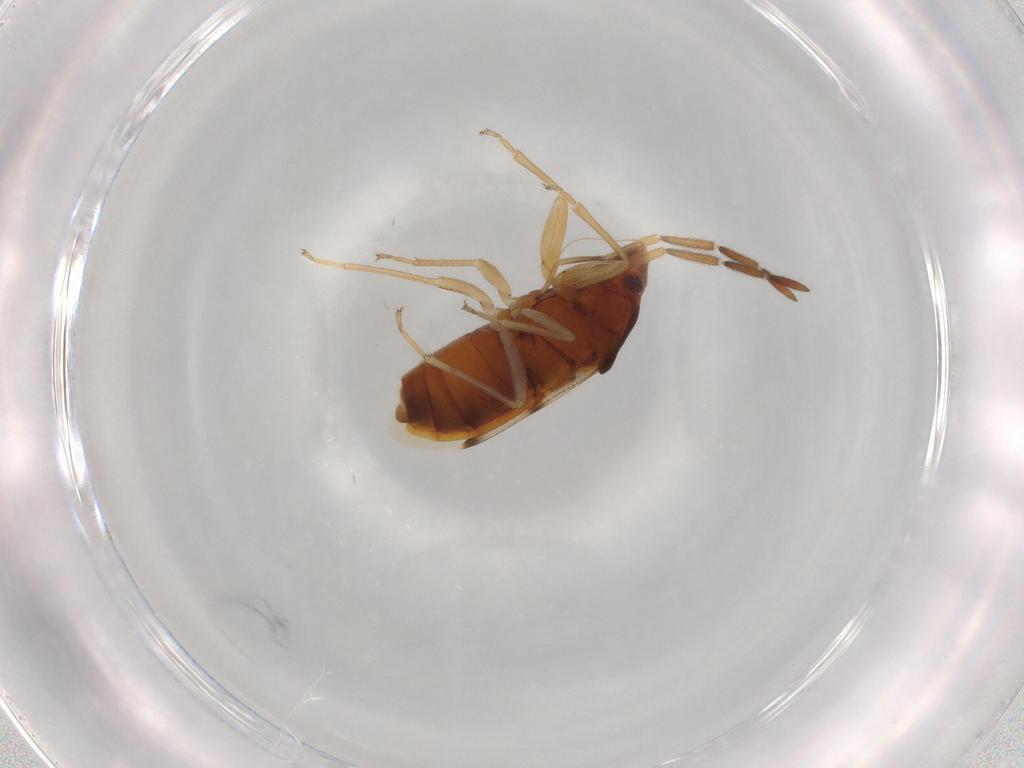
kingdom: Animalia
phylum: Arthropoda
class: Insecta
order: Hemiptera
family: Rhyparochromidae
